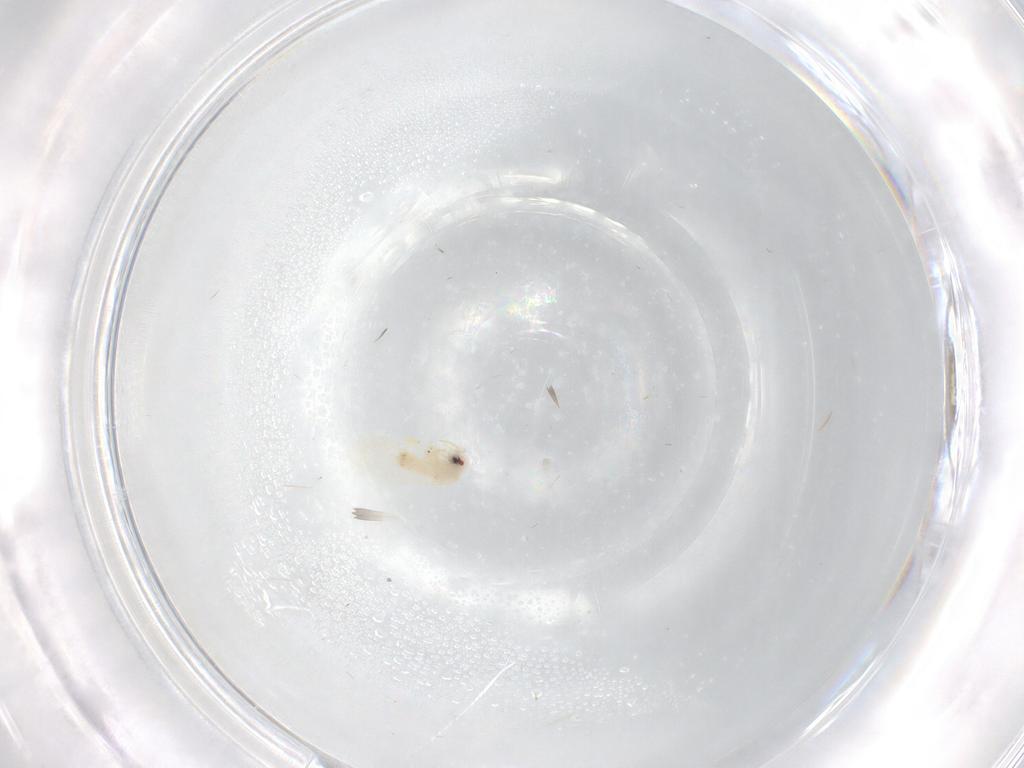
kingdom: Animalia
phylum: Arthropoda
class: Insecta
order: Hemiptera
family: Aleyrodidae
